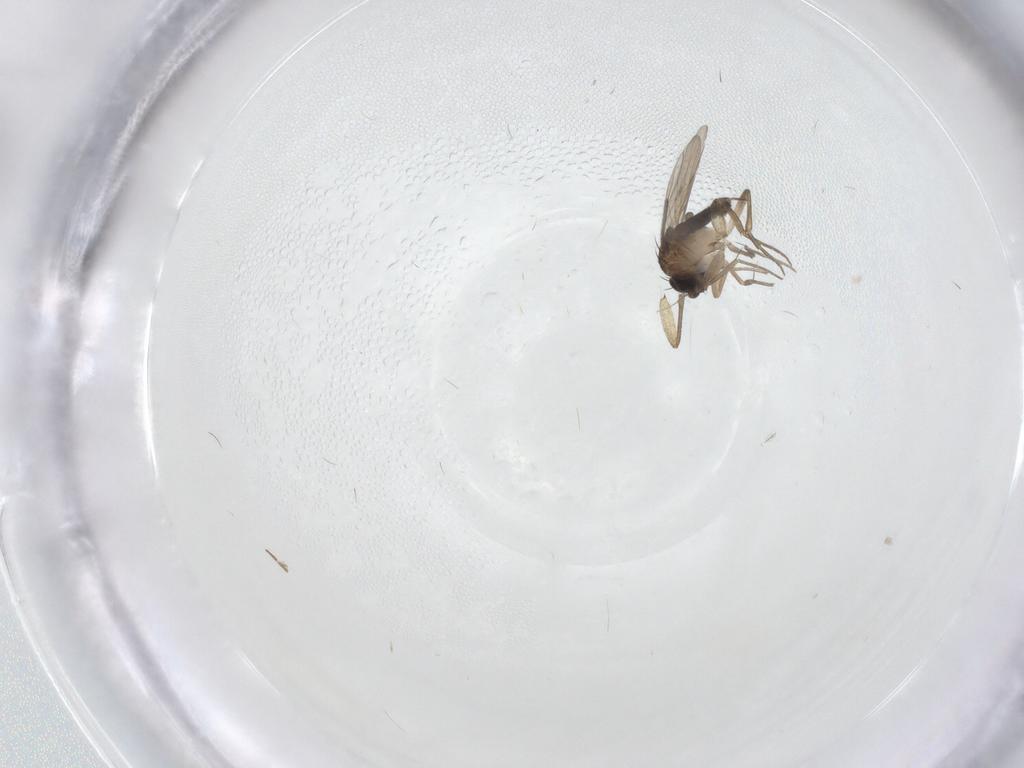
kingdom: Animalia
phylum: Arthropoda
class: Insecta
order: Diptera
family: Phoridae
